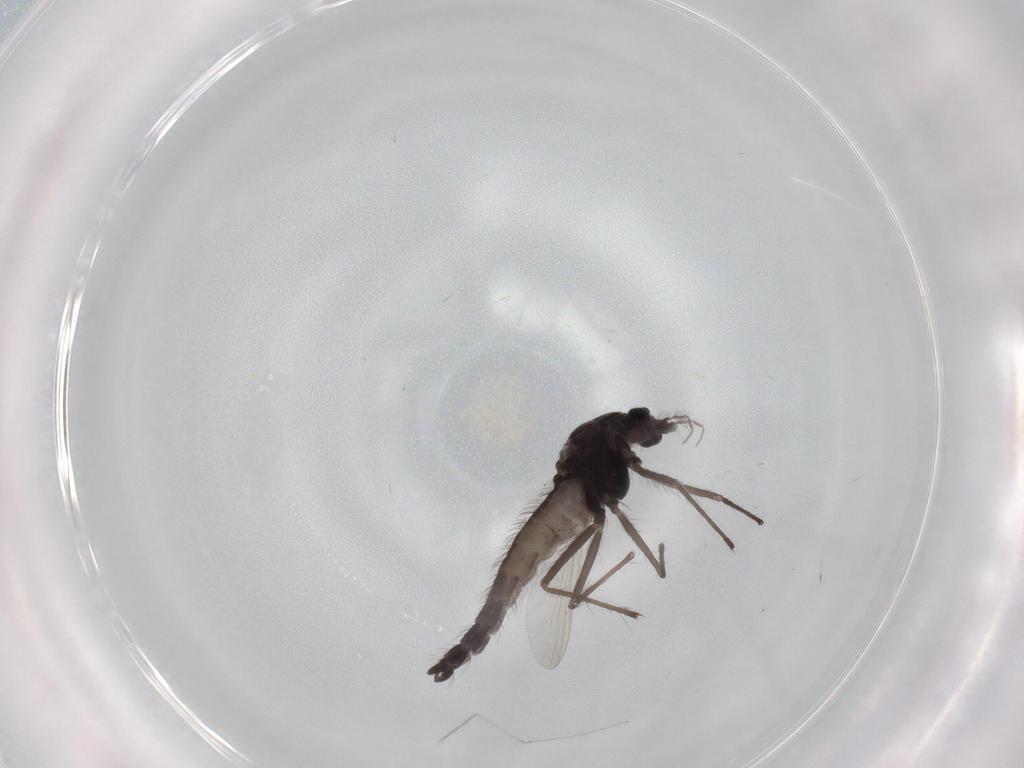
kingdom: Animalia
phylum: Arthropoda
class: Insecta
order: Diptera
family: Chironomidae
